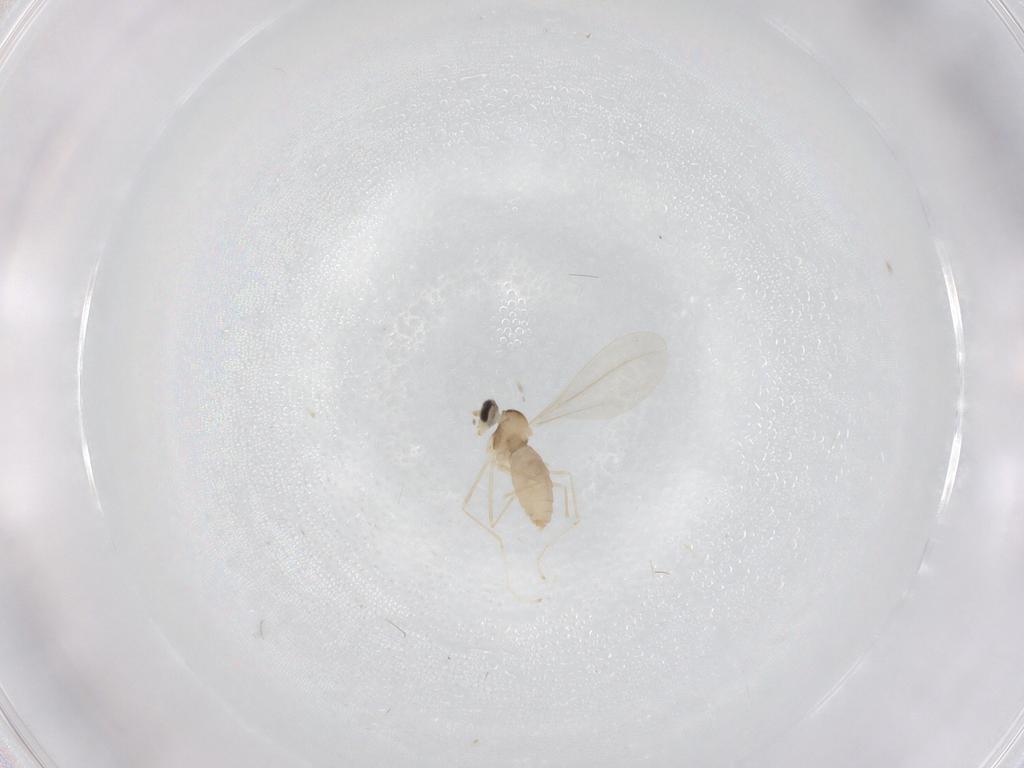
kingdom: Animalia
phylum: Arthropoda
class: Insecta
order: Diptera
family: Cecidomyiidae
